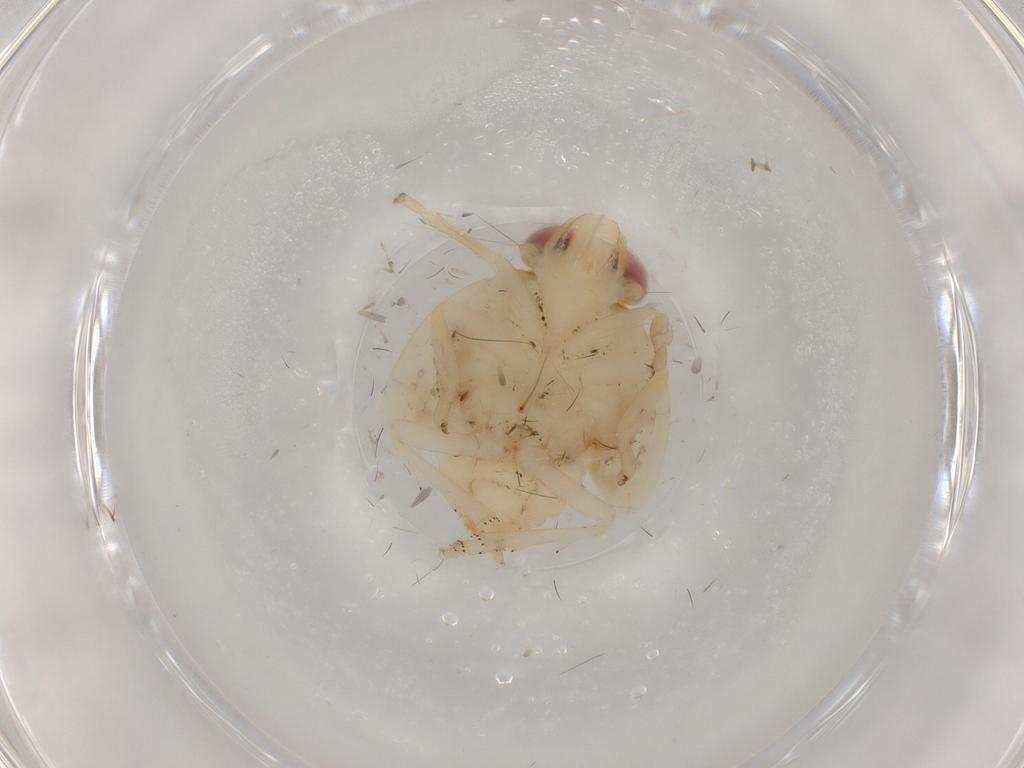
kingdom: Animalia
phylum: Arthropoda
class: Insecta
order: Hemiptera
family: Nogodinidae
